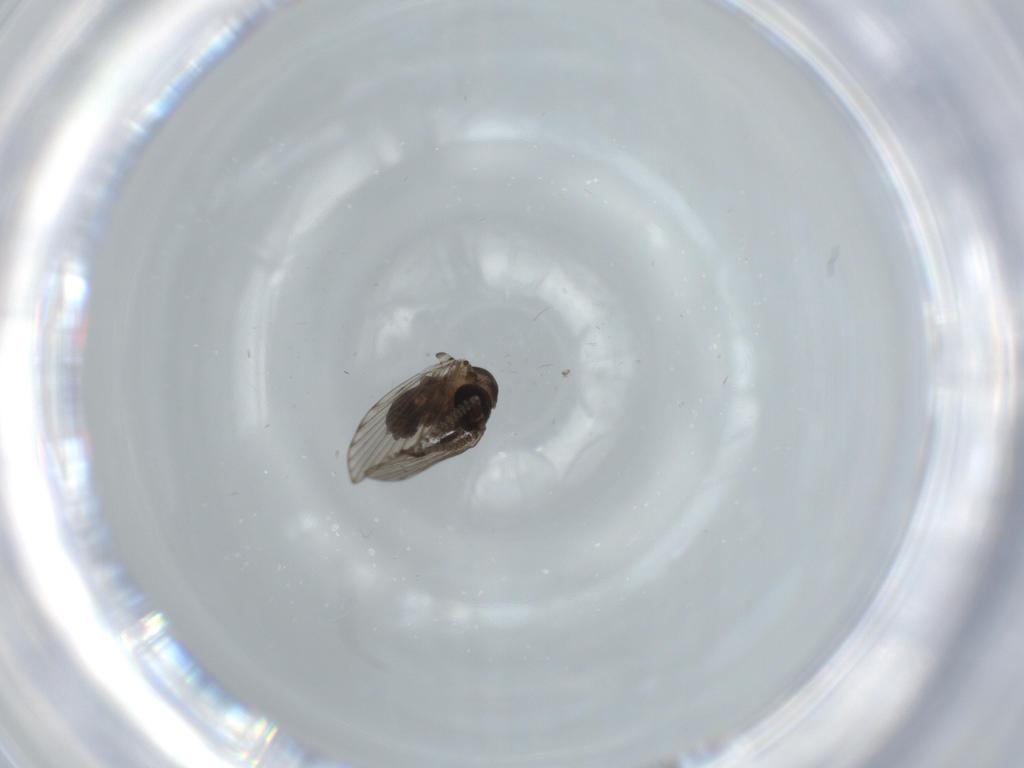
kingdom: Animalia
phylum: Arthropoda
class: Insecta
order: Diptera
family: Psychodidae
